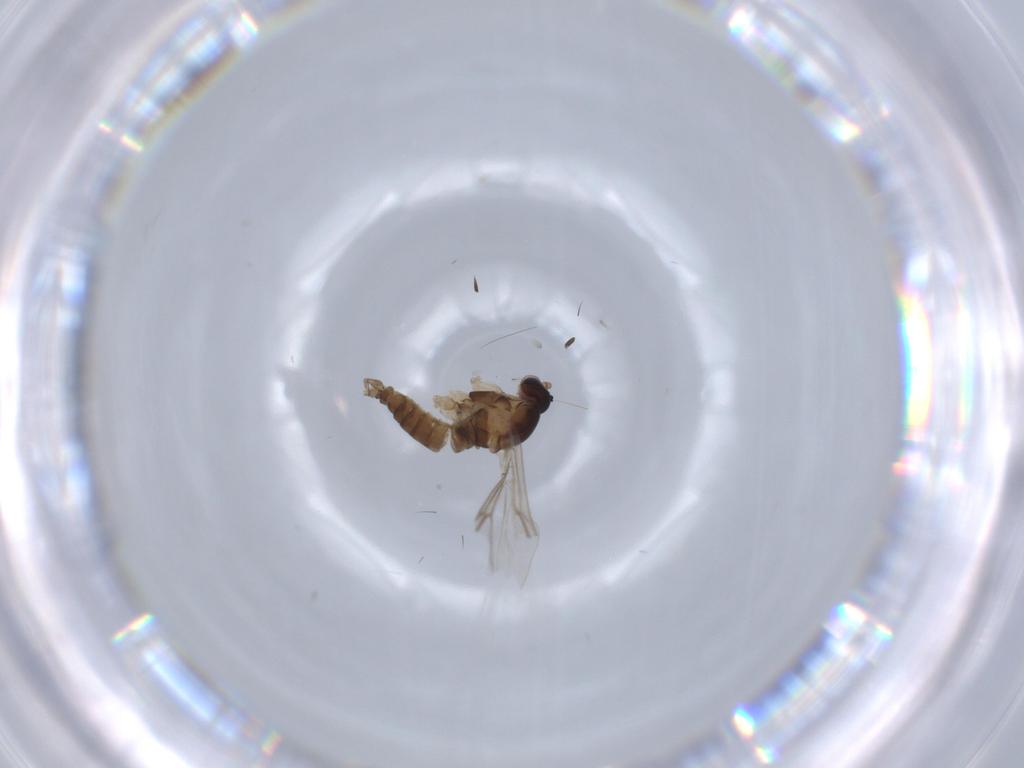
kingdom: Animalia
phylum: Arthropoda
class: Insecta
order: Diptera
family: Cecidomyiidae
